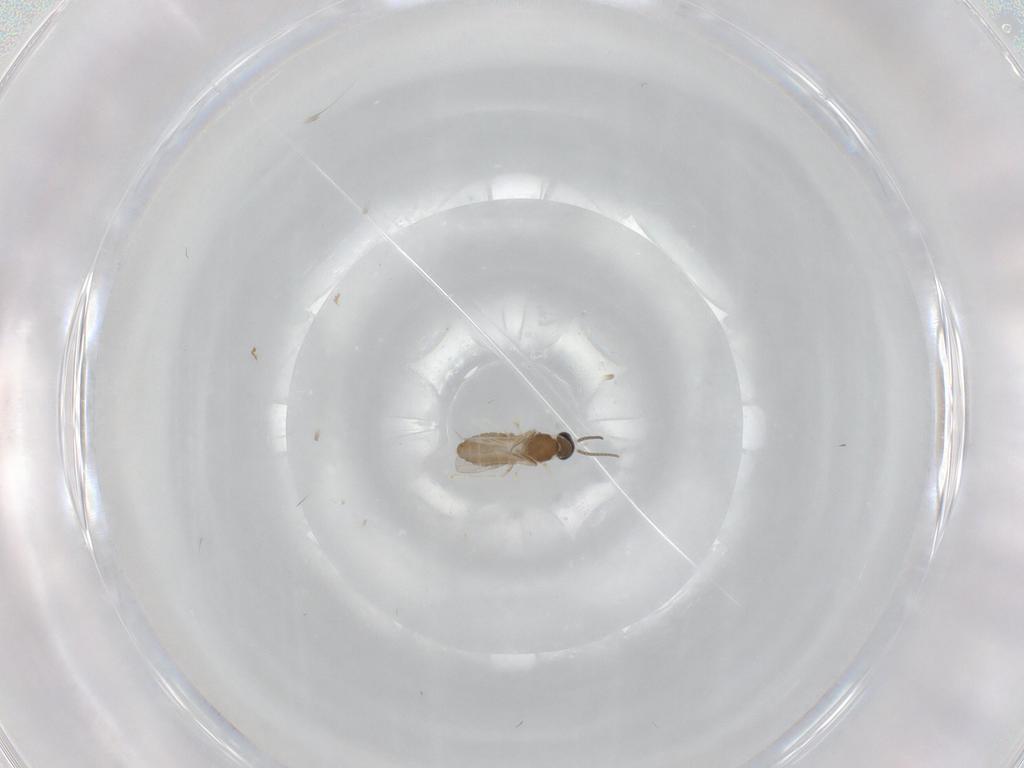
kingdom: Animalia
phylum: Arthropoda
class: Insecta
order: Diptera
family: Cecidomyiidae
